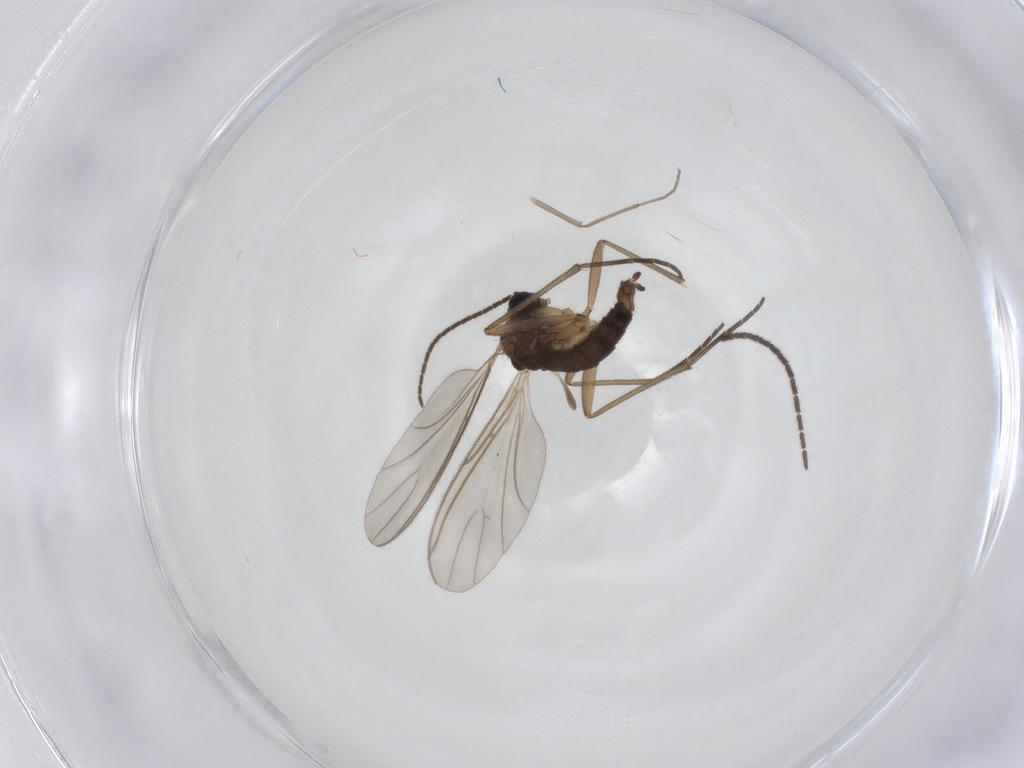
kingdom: Animalia
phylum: Arthropoda
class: Insecta
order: Diptera
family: Sciaridae
